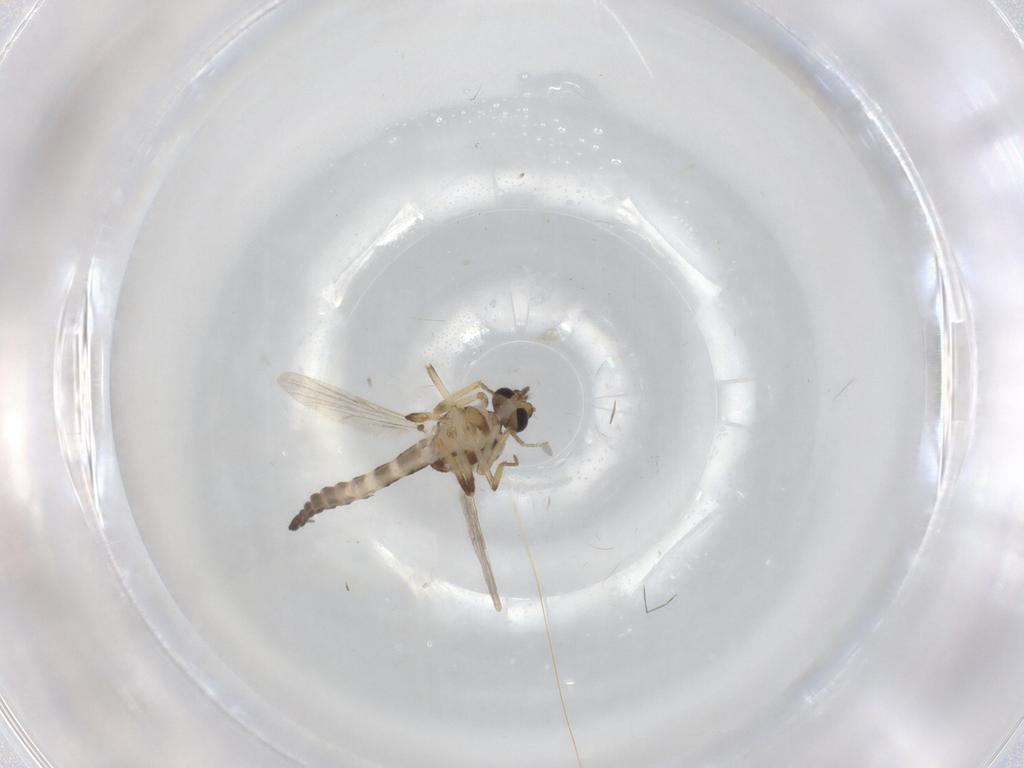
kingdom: Animalia
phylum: Arthropoda
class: Insecta
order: Diptera
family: Ceratopogonidae
